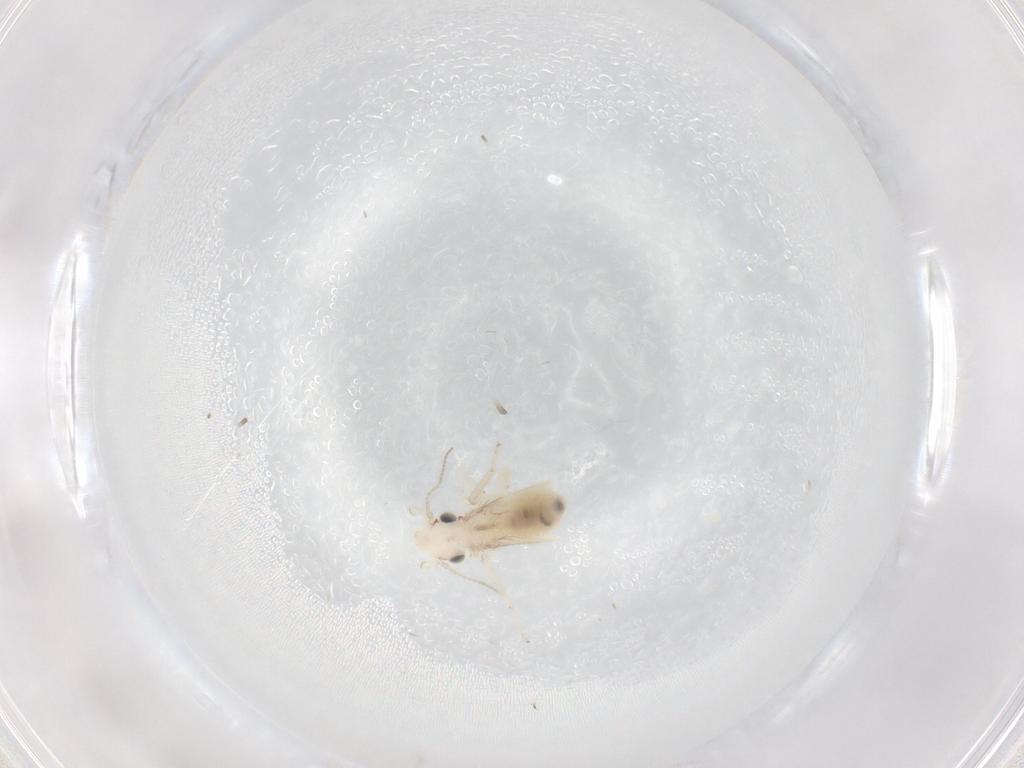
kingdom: Animalia
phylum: Arthropoda
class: Insecta
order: Psocodea
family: Lepidopsocidae
